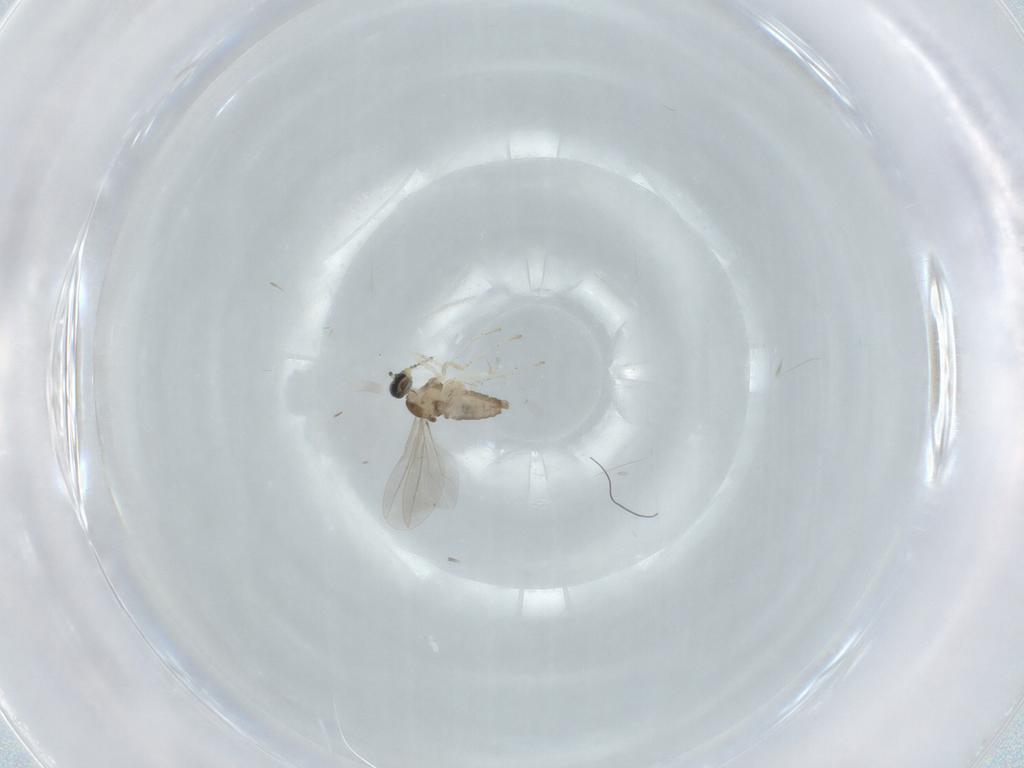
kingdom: Animalia
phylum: Arthropoda
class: Insecta
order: Diptera
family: Cecidomyiidae
